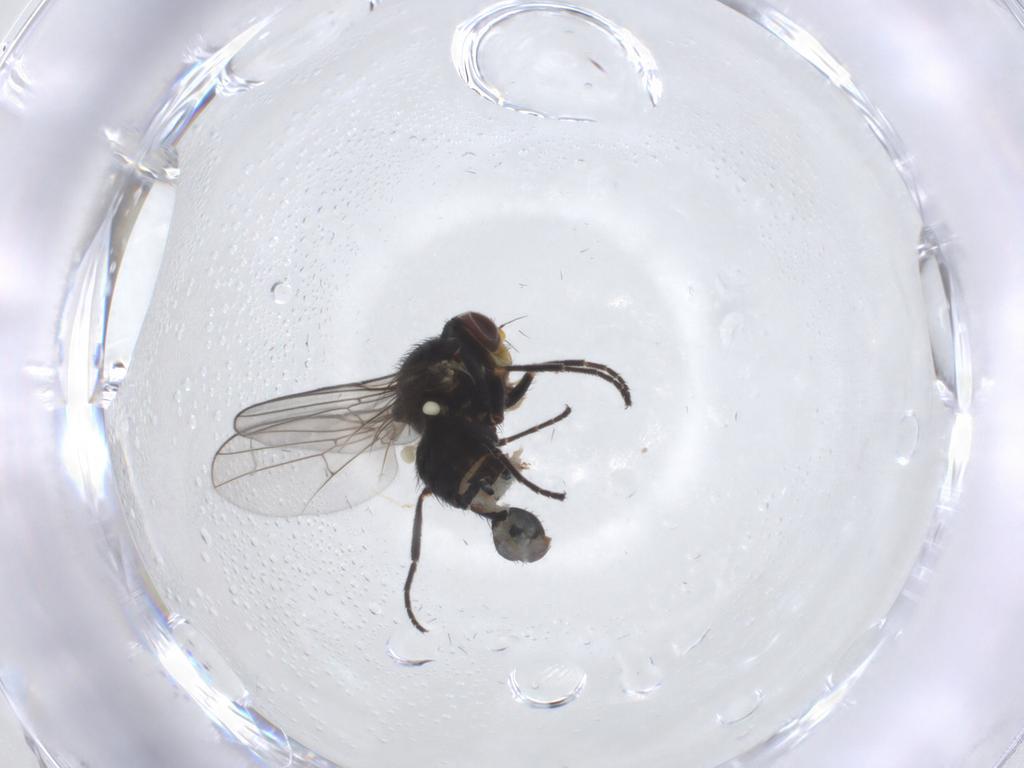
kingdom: Animalia
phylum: Arthropoda
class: Insecta
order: Diptera
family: Agromyzidae
